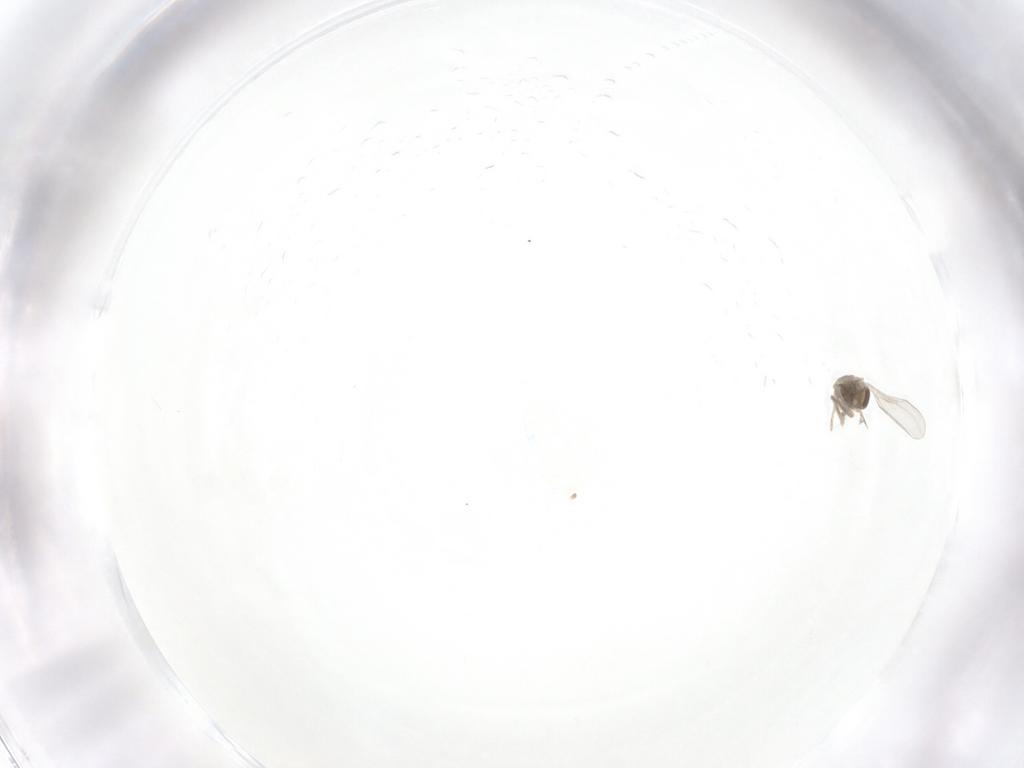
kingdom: Animalia
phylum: Arthropoda
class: Insecta
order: Diptera
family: Cecidomyiidae
